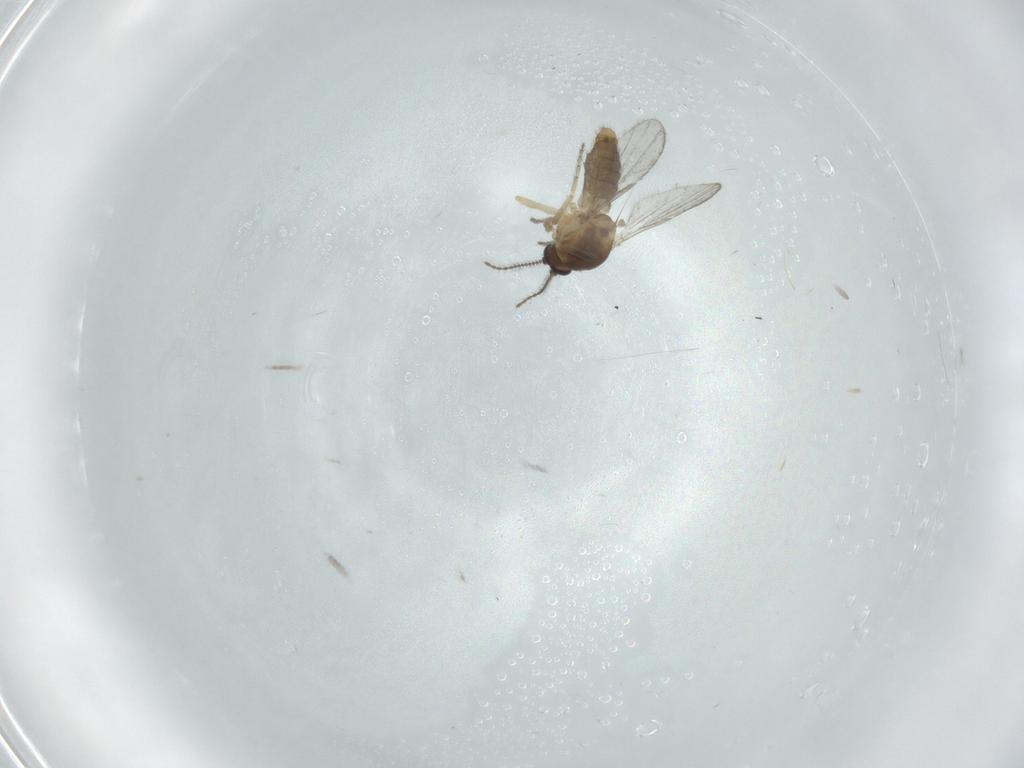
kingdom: Animalia
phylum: Arthropoda
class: Insecta
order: Diptera
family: Ceratopogonidae
